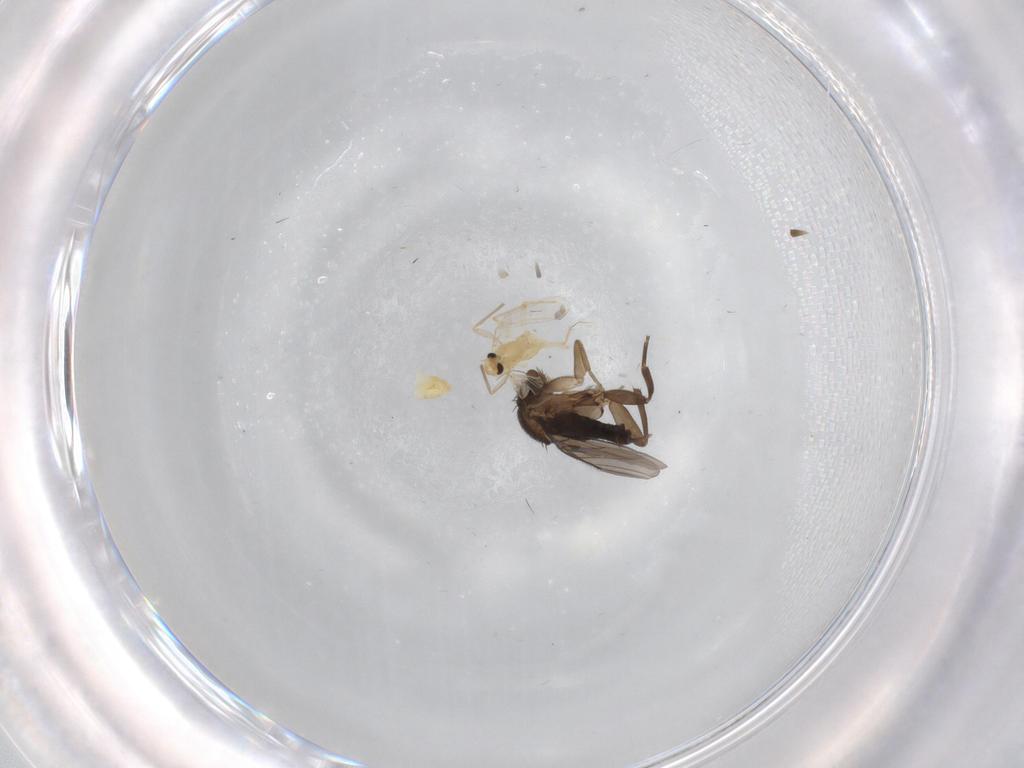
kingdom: Animalia
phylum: Arthropoda
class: Insecta
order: Diptera
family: Chironomidae
